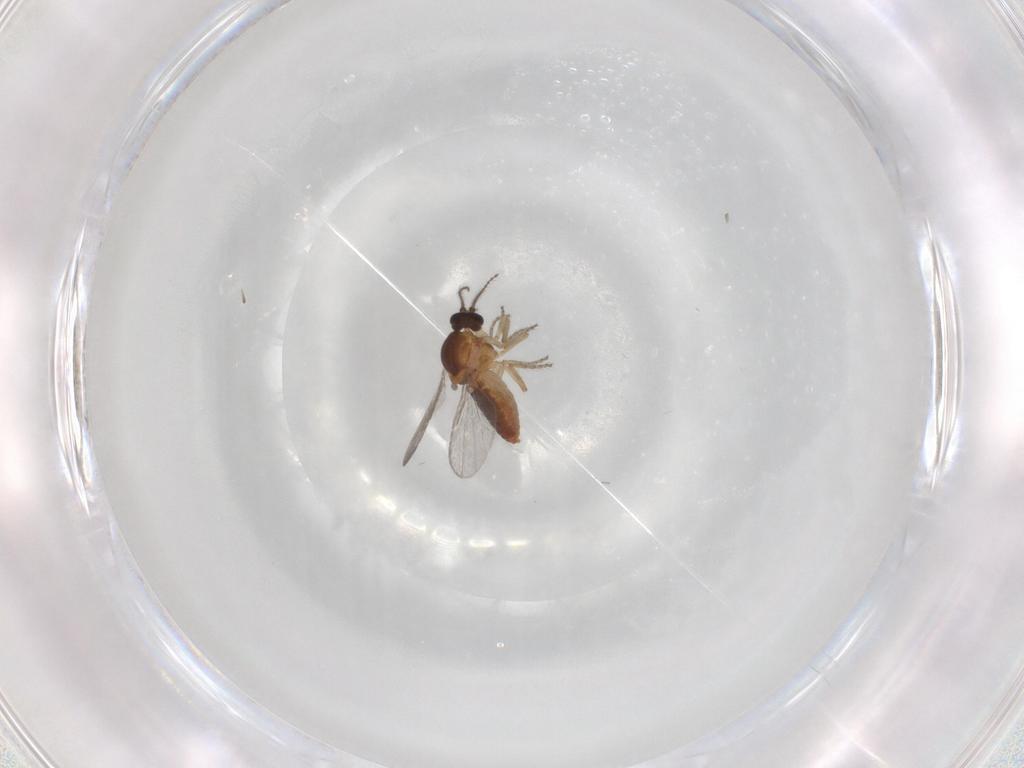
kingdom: Animalia
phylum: Arthropoda
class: Insecta
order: Diptera
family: Ceratopogonidae
